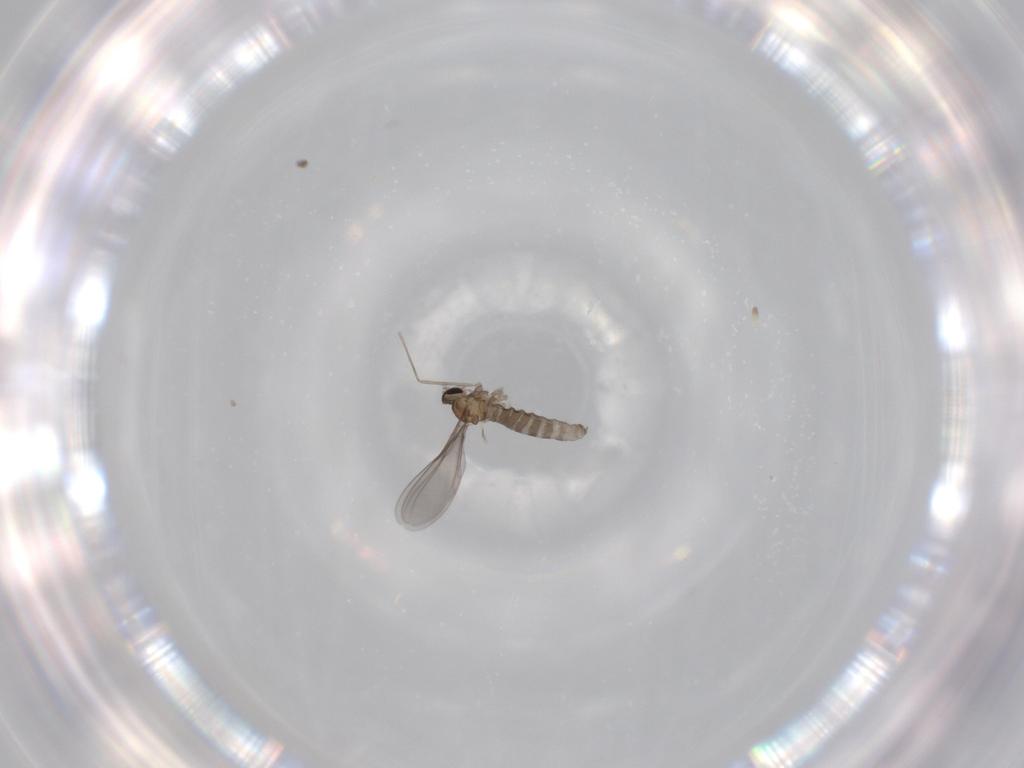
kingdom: Animalia
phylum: Arthropoda
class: Insecta
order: Diptera
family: Cecidomyiidae
